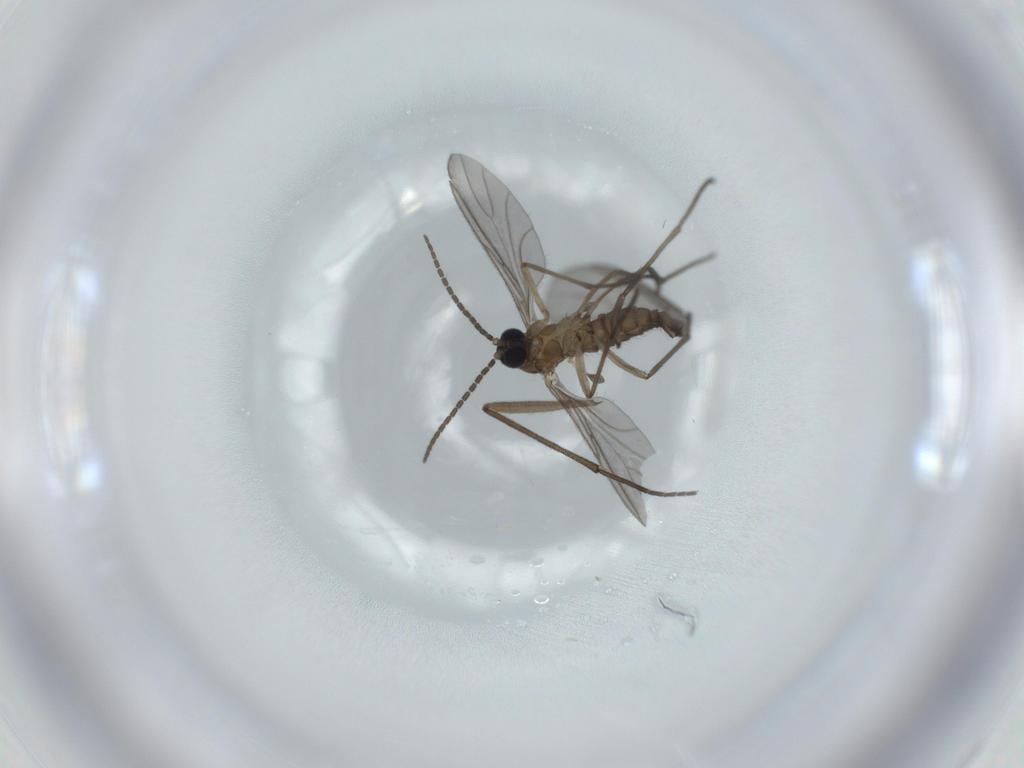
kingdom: Animalia
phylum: Arthropoda
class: Insecta
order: Diptera
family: Sciaridae
